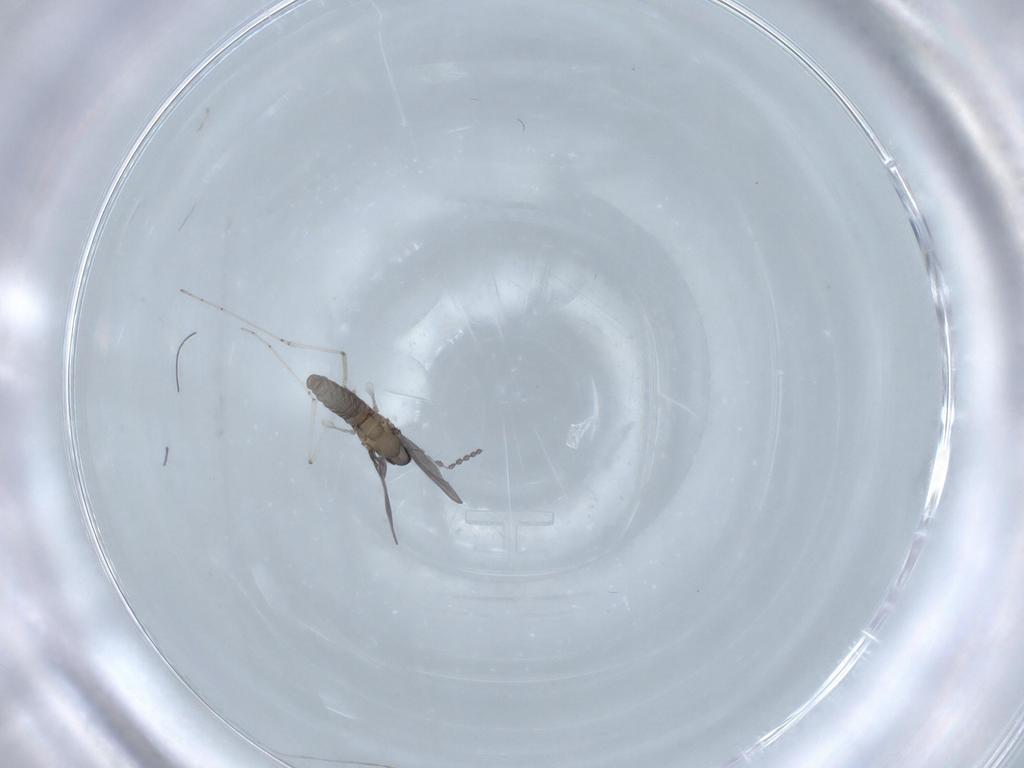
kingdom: Animalia
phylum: Arthropoda
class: Insecta
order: Diptera
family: Cecidomyiidae
